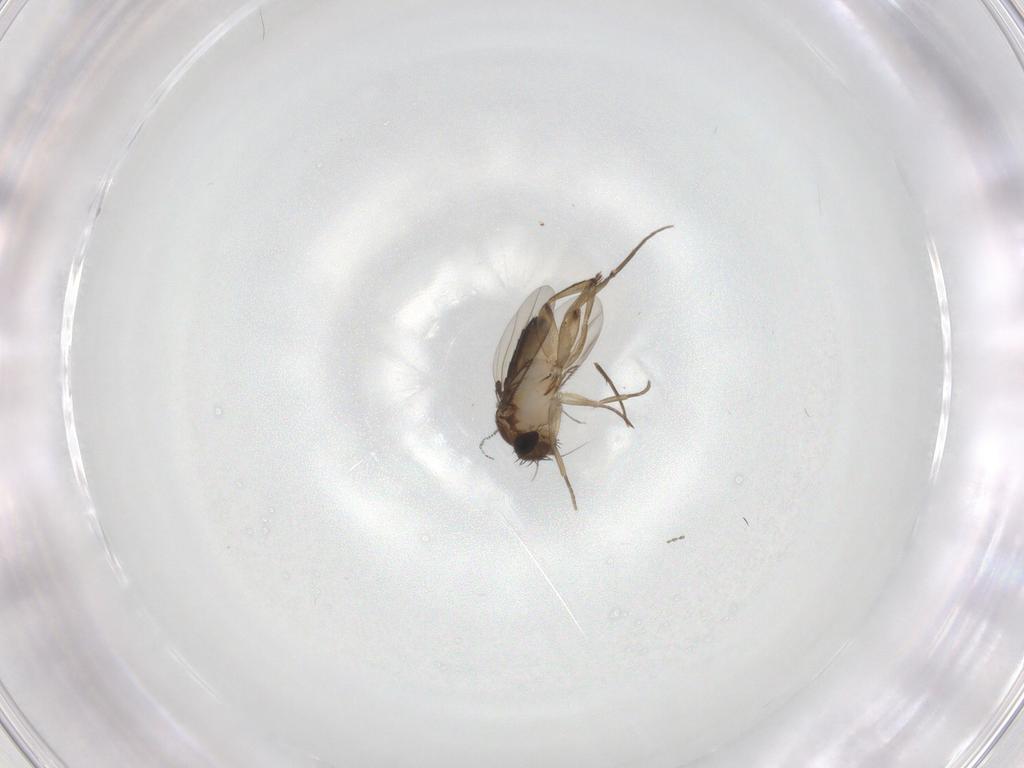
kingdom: Animalia
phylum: Arthropoda
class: Insecta
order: Diptera
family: Phoridae
